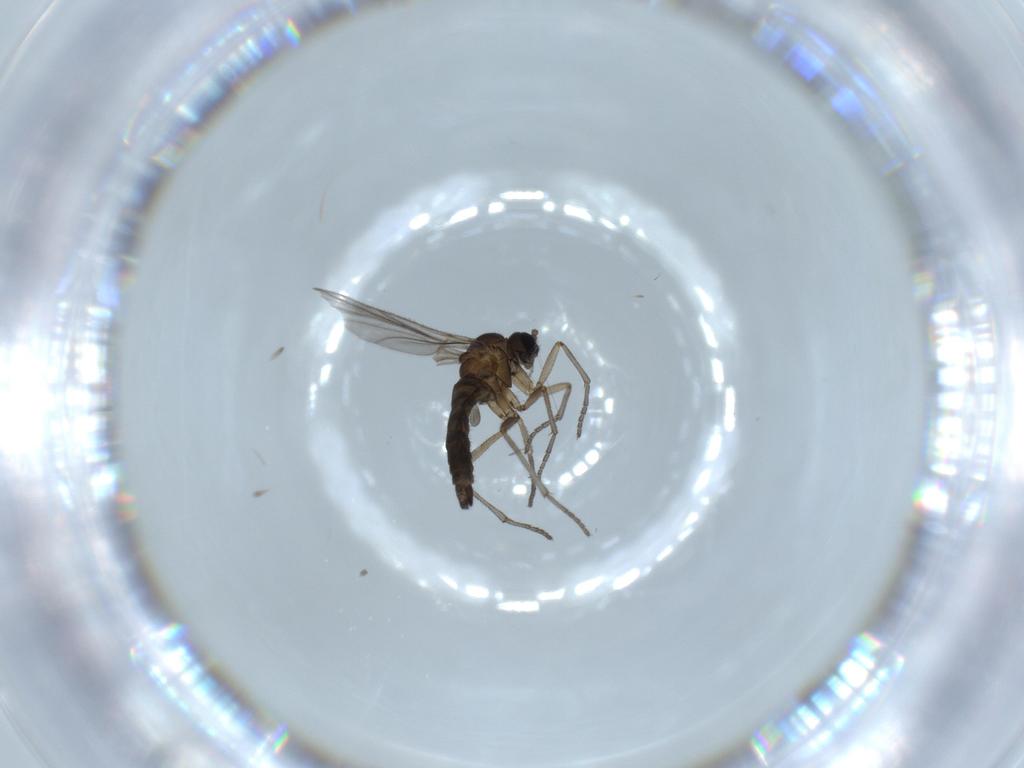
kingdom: Animalia
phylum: Arthropoda
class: Insecta
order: Diptera
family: Sciaridae
